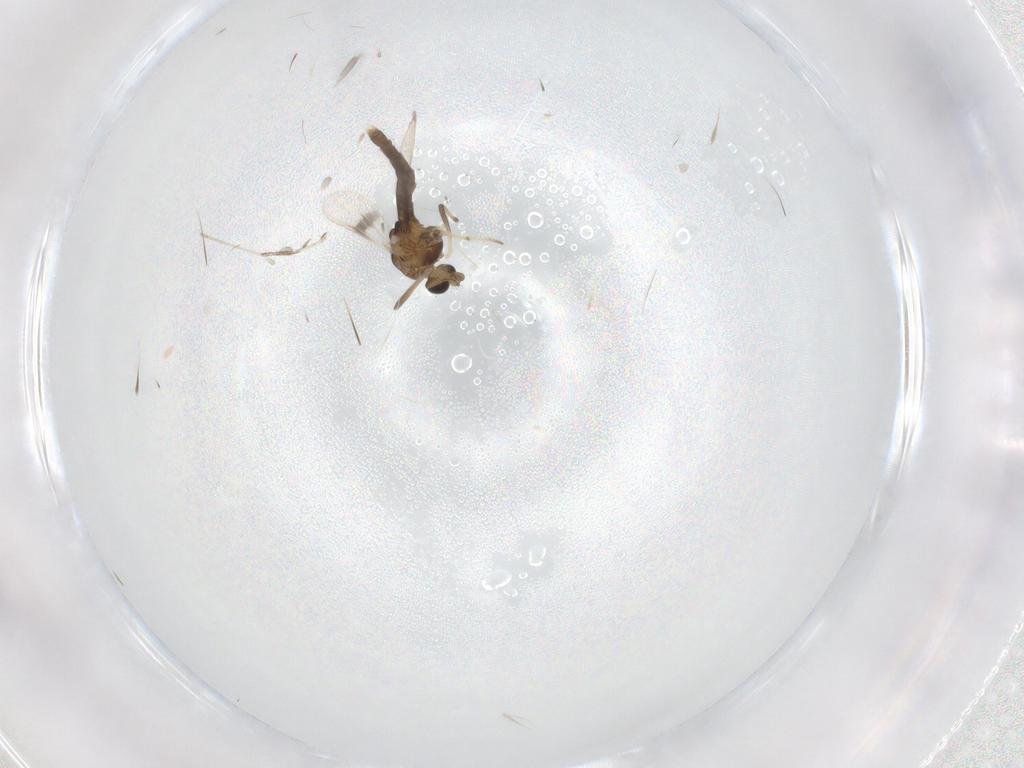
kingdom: Animalia
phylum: Arthropoda
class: Insecta
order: Diptera
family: Chironomidae
